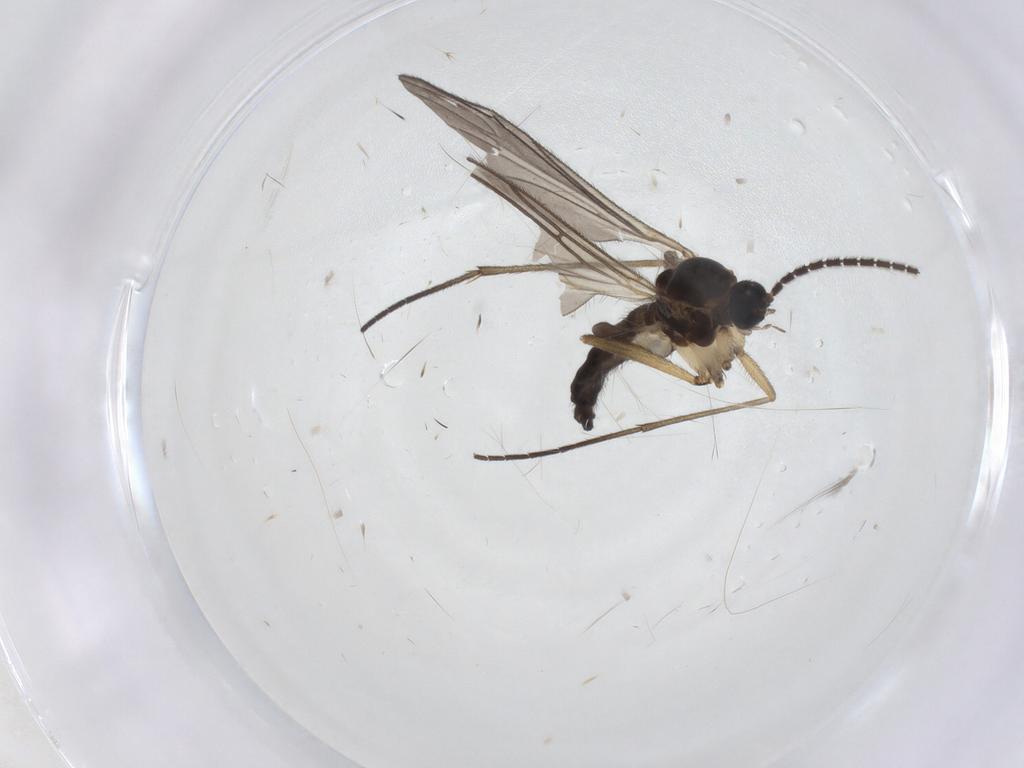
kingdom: Animalia
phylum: Arthropoda
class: Insecta
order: Diptera
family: Sciaridae
